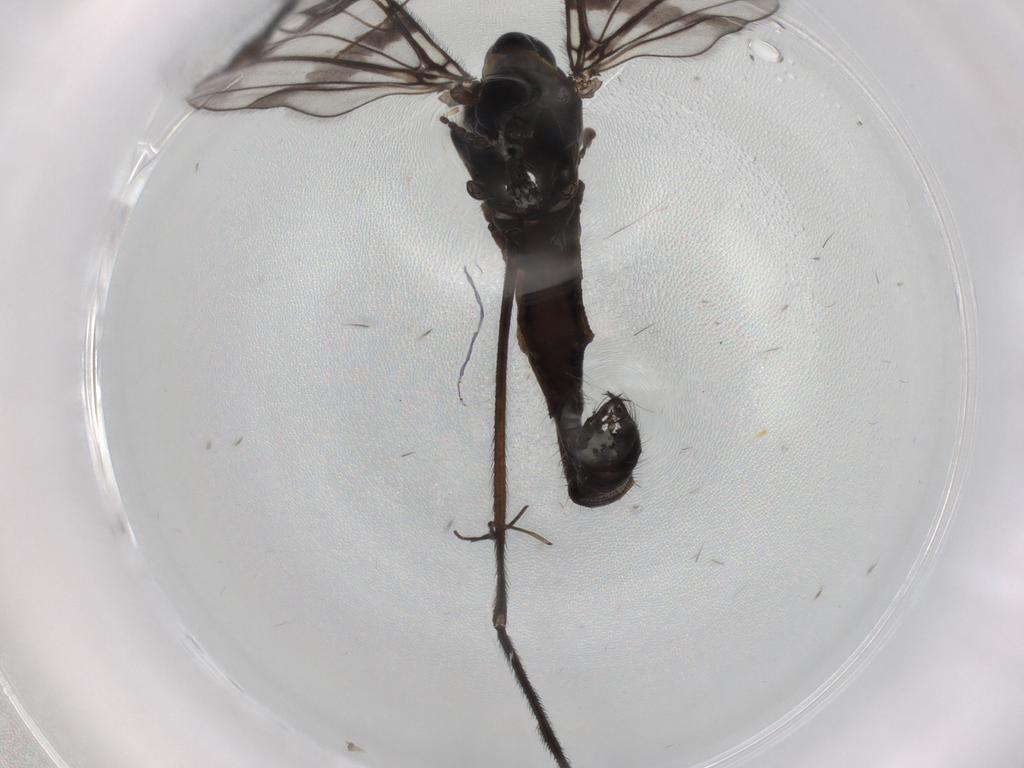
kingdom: Animalia
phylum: Arthropoda
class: Insecta
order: Diptera
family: Limoniidae
